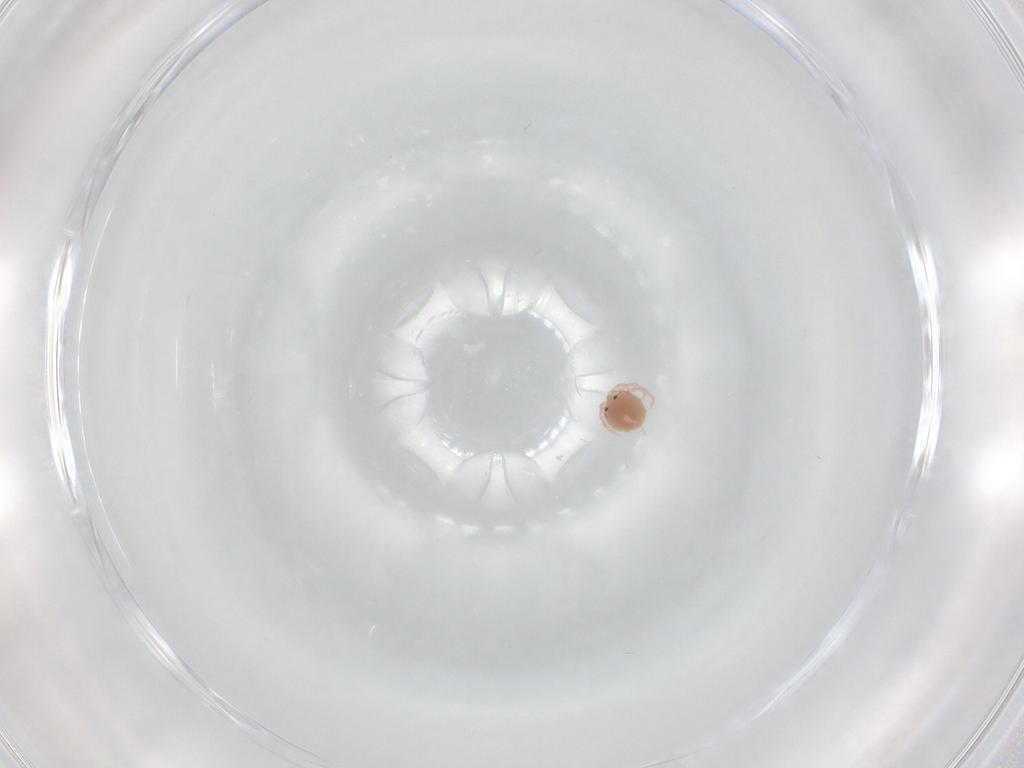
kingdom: Animalia
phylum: Arthropoda
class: Arachnida
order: Trombidiformes
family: Lebertiidae
